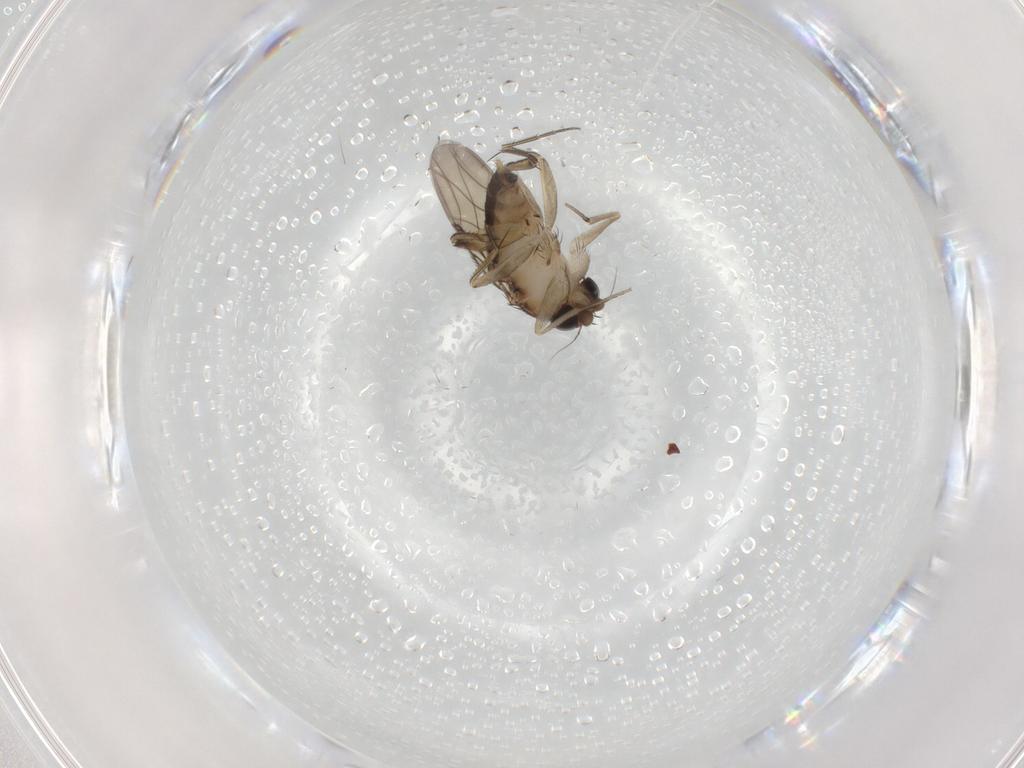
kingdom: Animalia
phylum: Arthropoda
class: Insecta
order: Diptera
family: Phoridae
